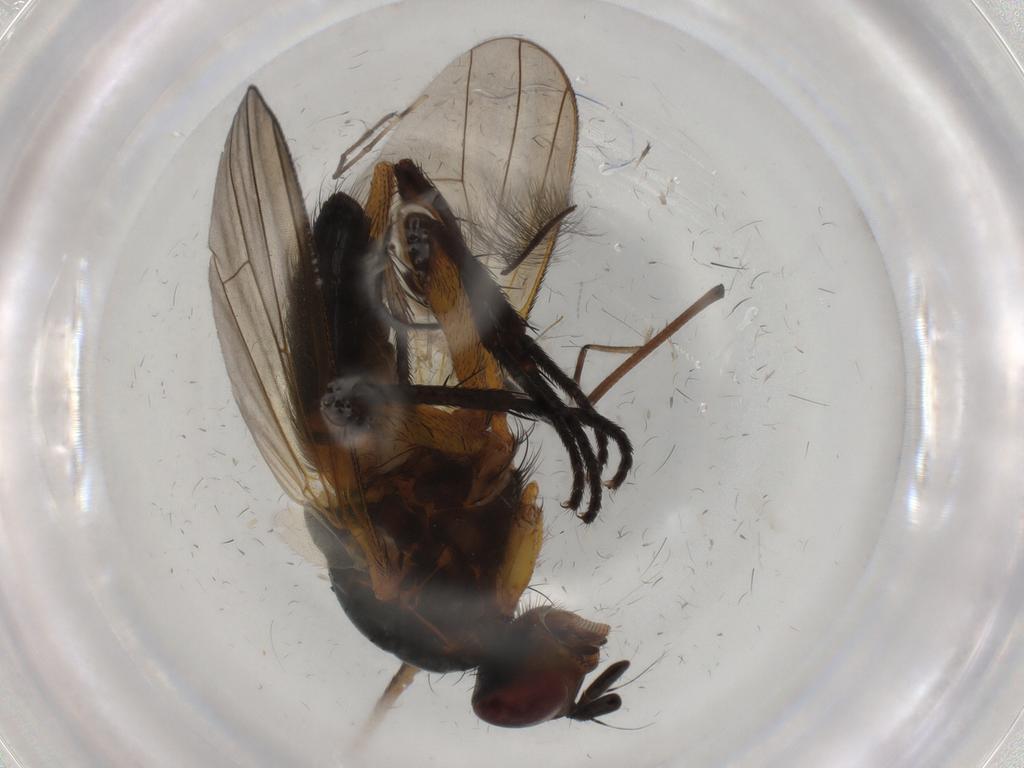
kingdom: Animalia
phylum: Arthropoda
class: Insecta
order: Diptera
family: Anthomyiidae
